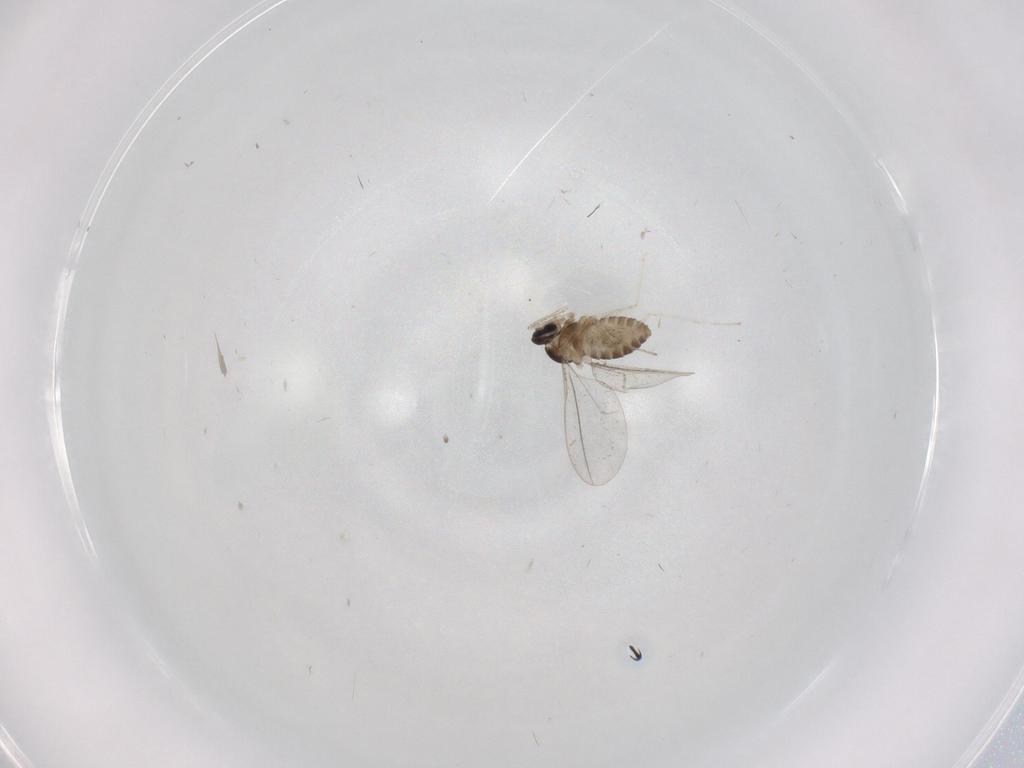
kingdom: Animalia
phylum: Arthropoda
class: Insecta
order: Diptera
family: Cecidomyiidae
